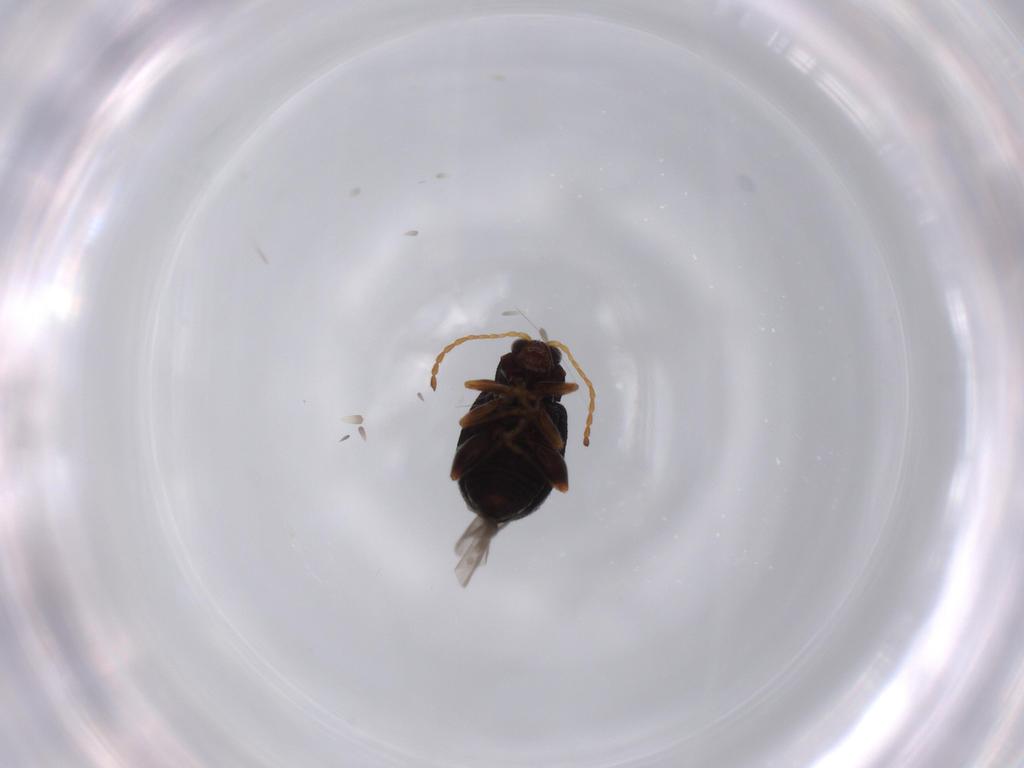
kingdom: Animalia
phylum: Arthropoda
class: Insecta
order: Coleoptera
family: Chrysomelidae
